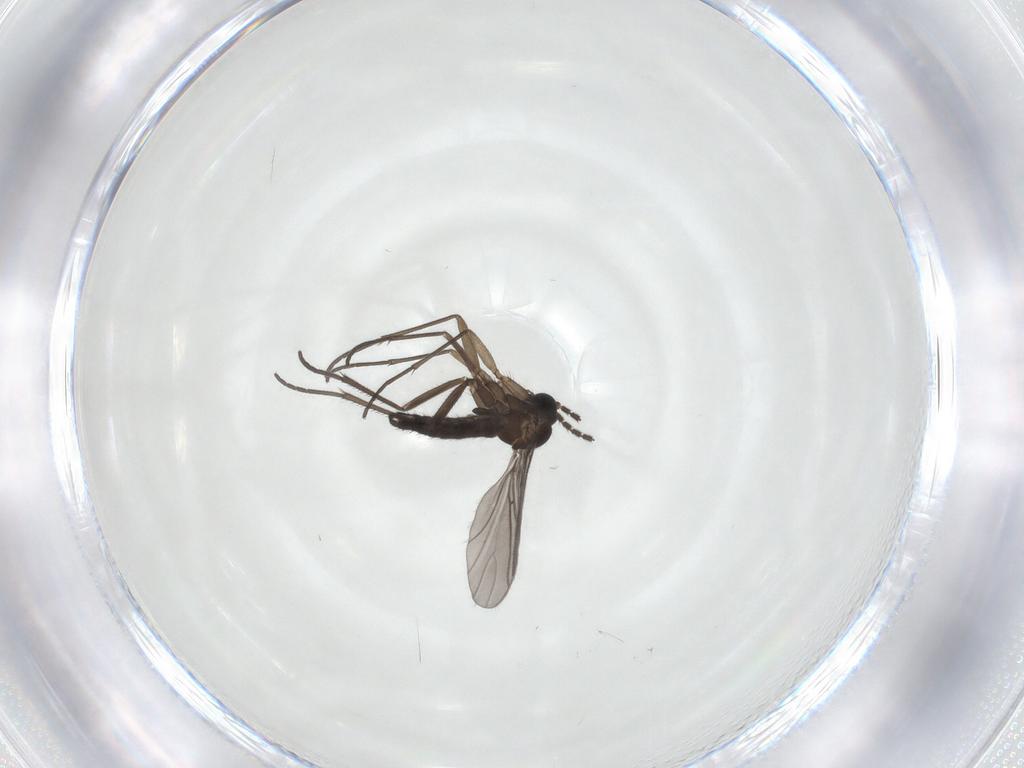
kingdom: Animalia
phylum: Arthropoda
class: Insecta
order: Diptera
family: Sciaridae
